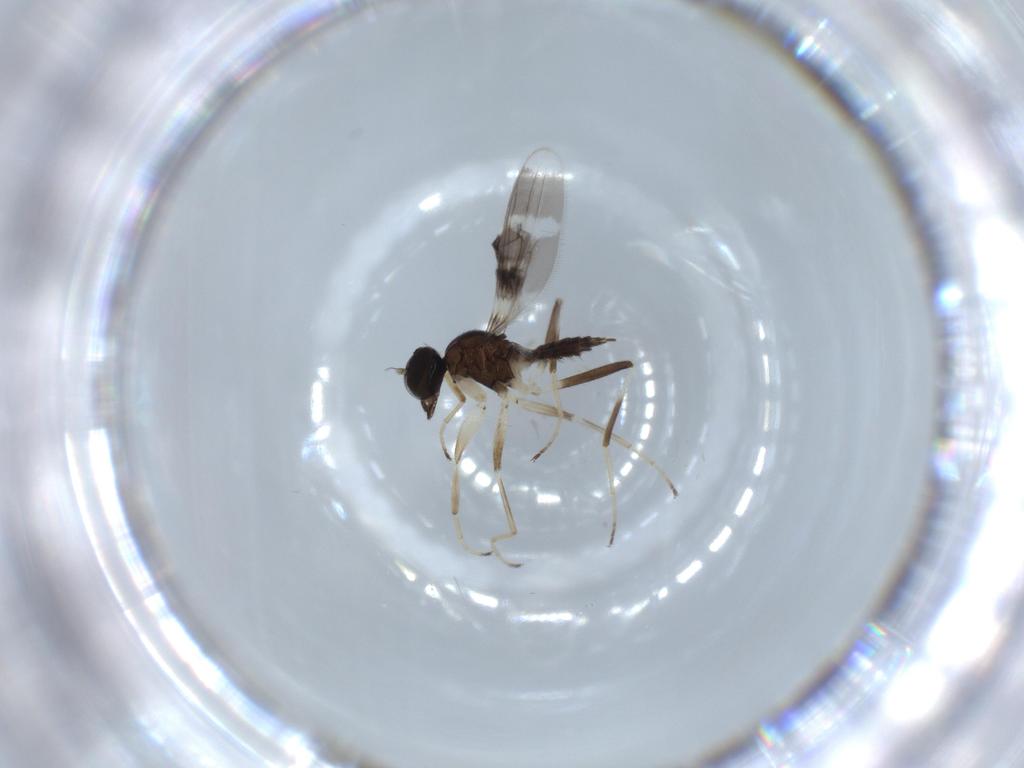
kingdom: Animalia
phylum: Arthropoda
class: Insecta
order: Diptera
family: Hybotidae
